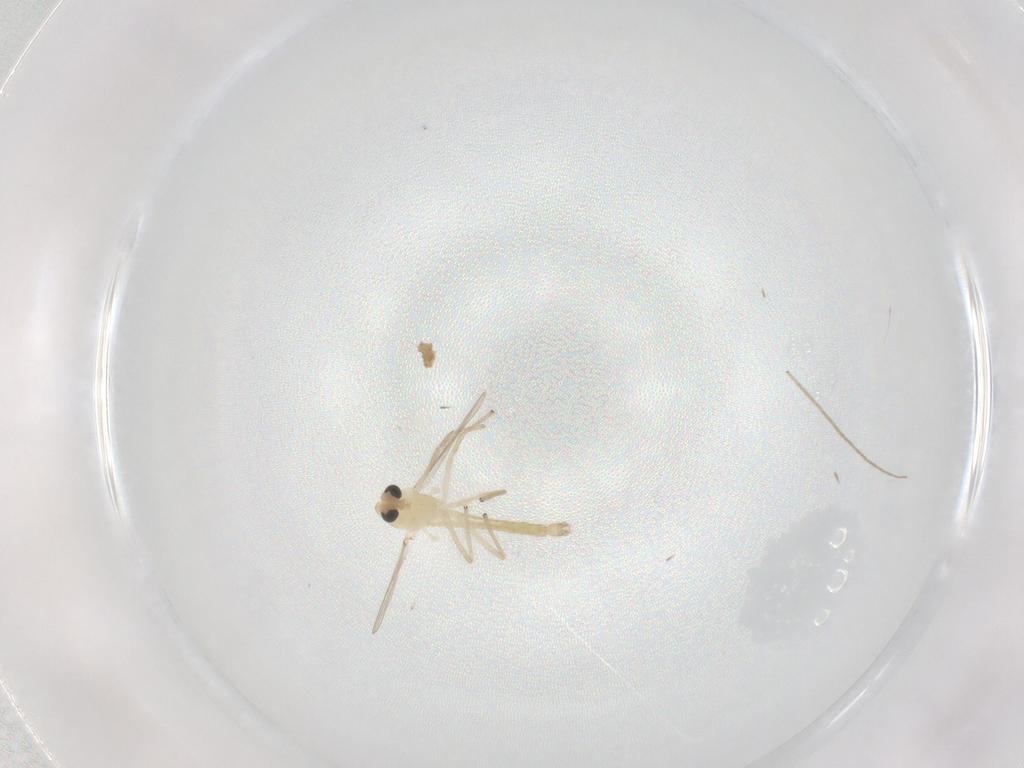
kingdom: Animalia
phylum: Arthropoda
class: Insecta
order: Diptera
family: Chironomidae
